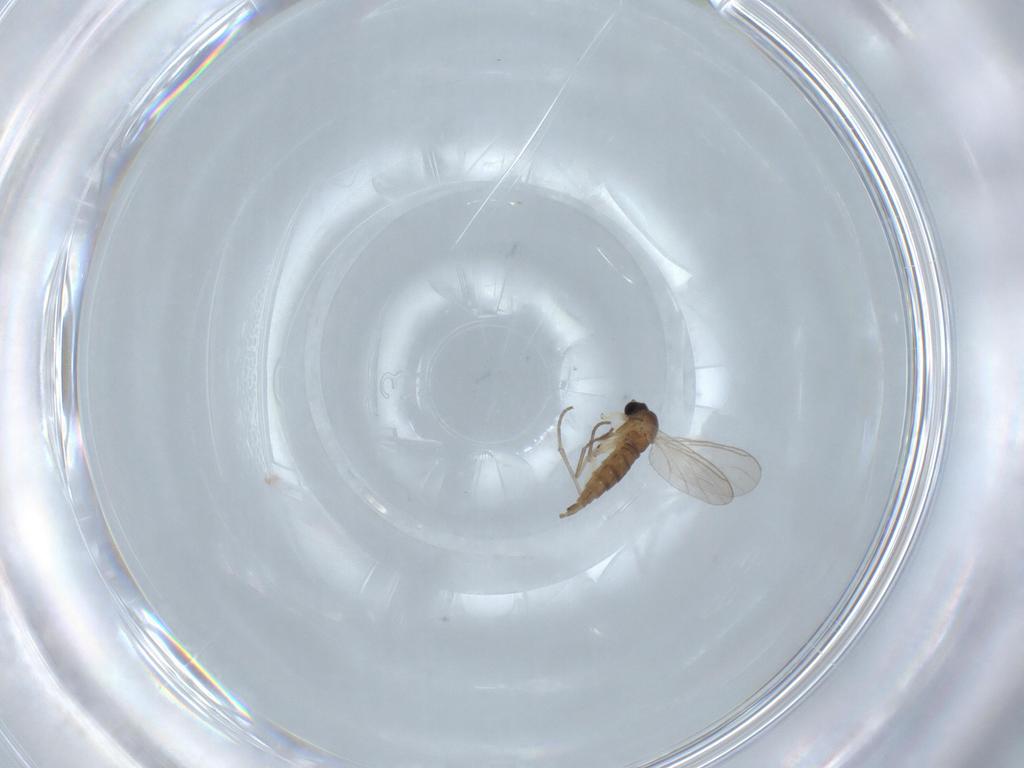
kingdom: Animalia
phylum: Arthropoda
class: Insecta
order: Diptera
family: Sciaridae
